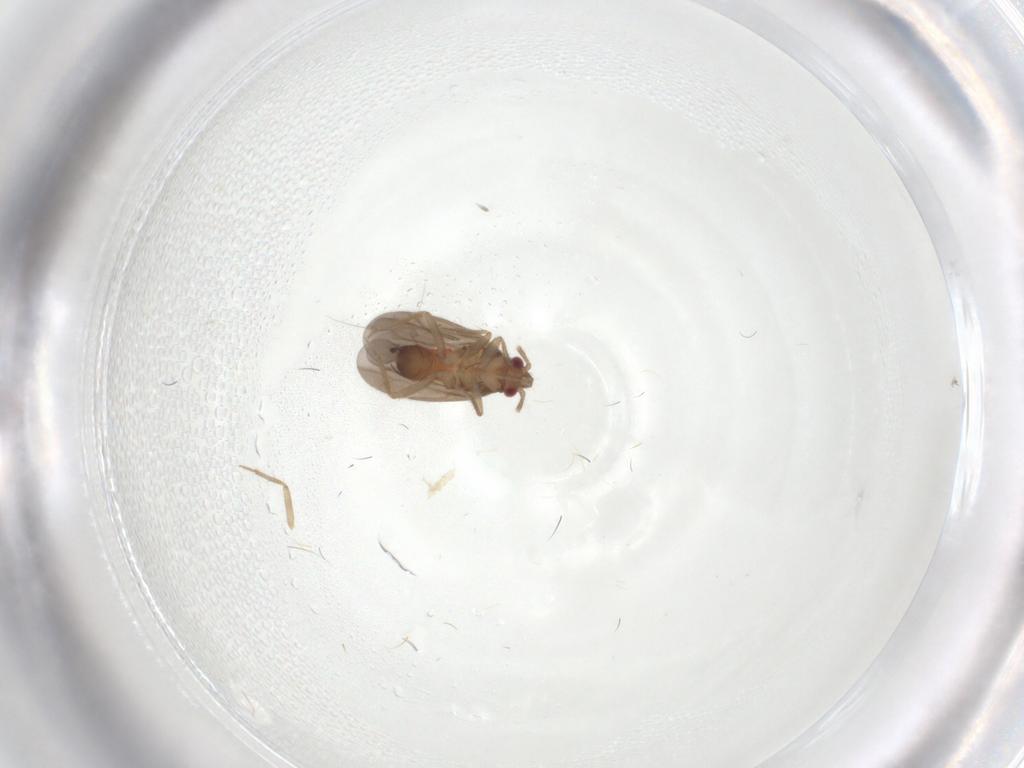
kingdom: Animalia
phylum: Arthropoda
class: Insecta
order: Hemiptera
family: Ceratocombidae
